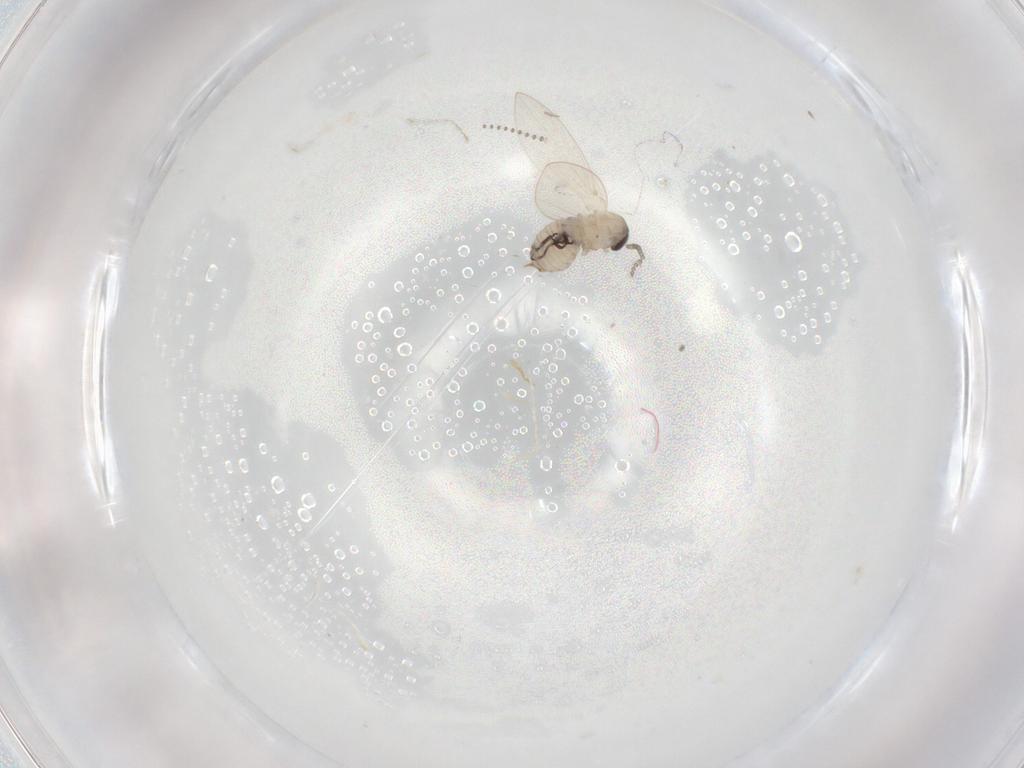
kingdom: Animalia
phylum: Arthropoda
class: Insecta
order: Diptera
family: Psychodidae
